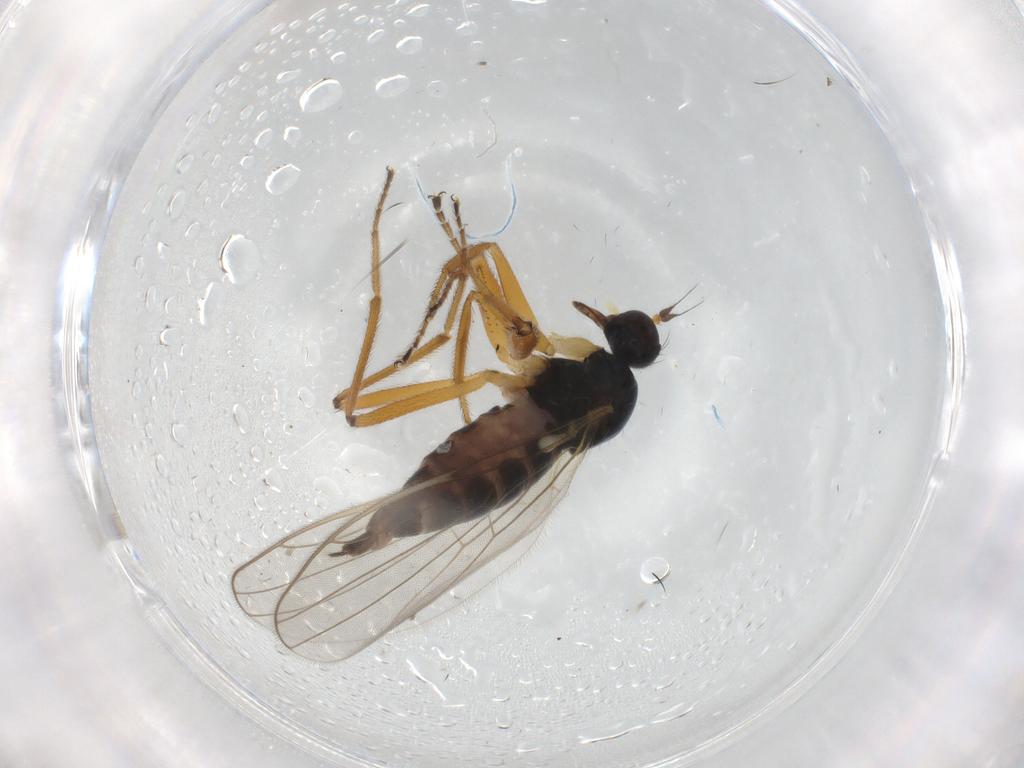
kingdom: Animalia
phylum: Arthropoda
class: Insecta
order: Diptera
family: Hybotidae
